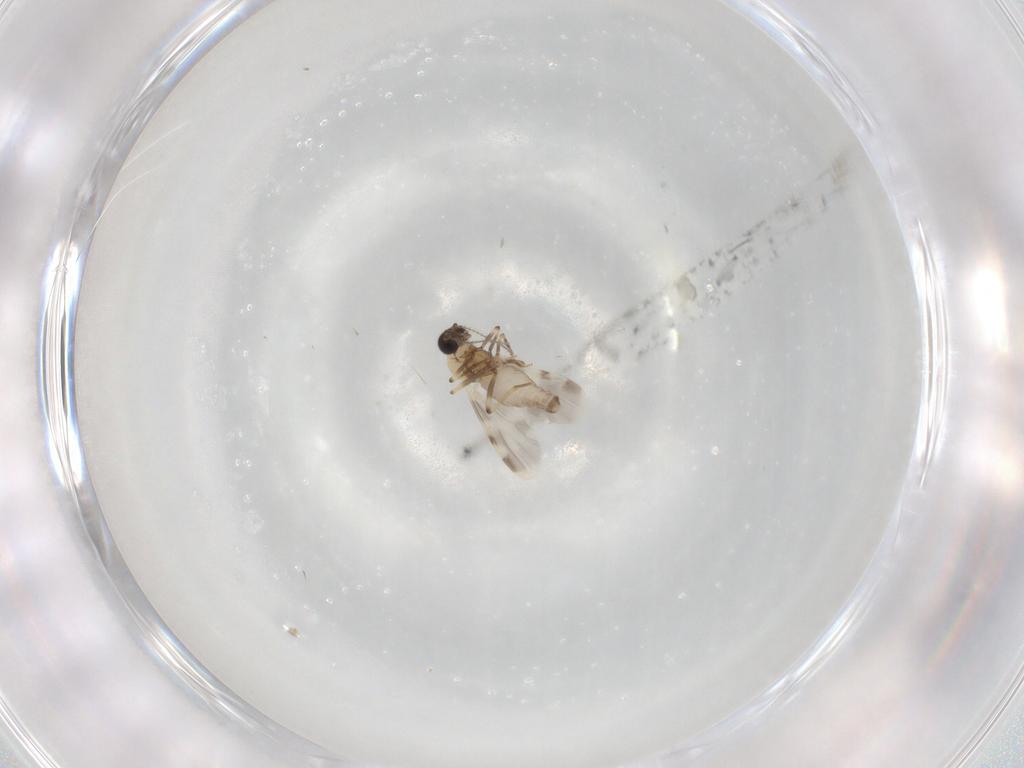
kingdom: Animalia
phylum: Arthropoda
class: Insecta
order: Diptera
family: Ceratopogonidae
